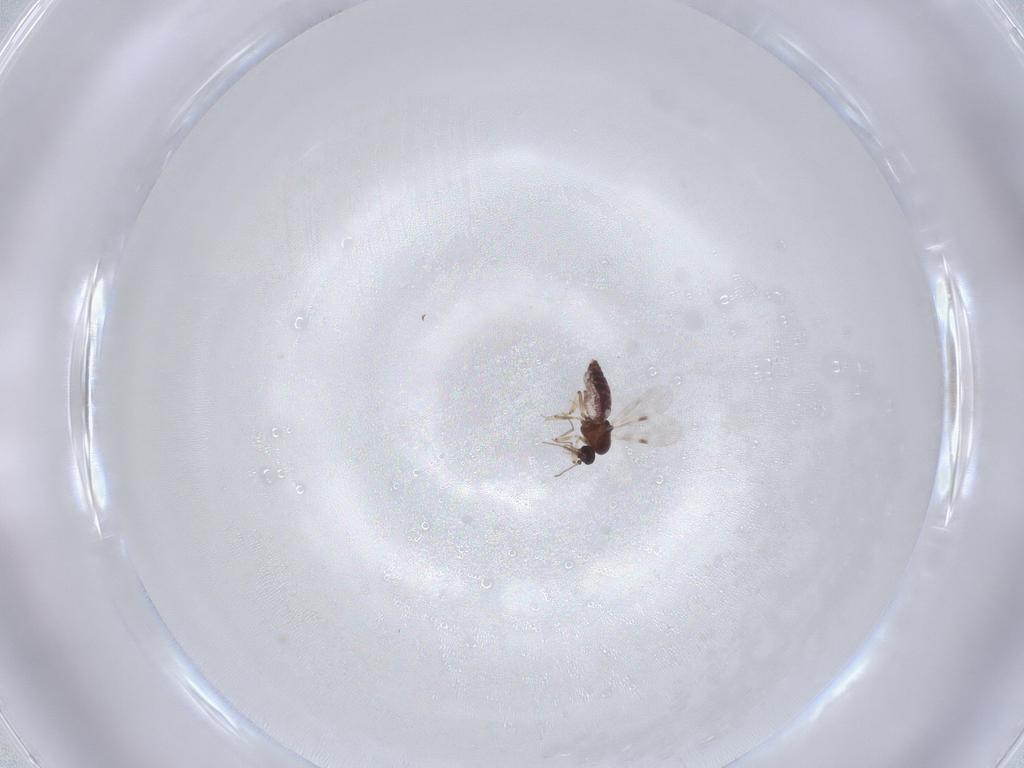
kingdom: Animalia
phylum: Arthropoda
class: Insecta
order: Diptera
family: Ceratopogonidae
